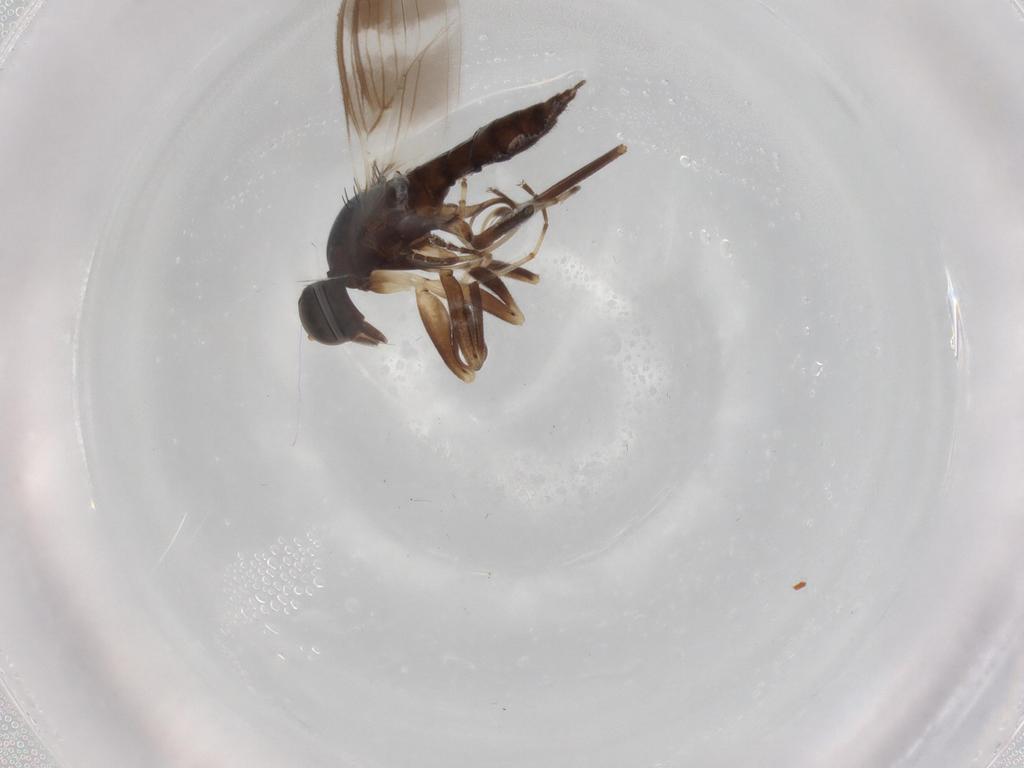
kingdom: Animalia
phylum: Arthropoda
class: Insecta
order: Diptera
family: Hybotidae
